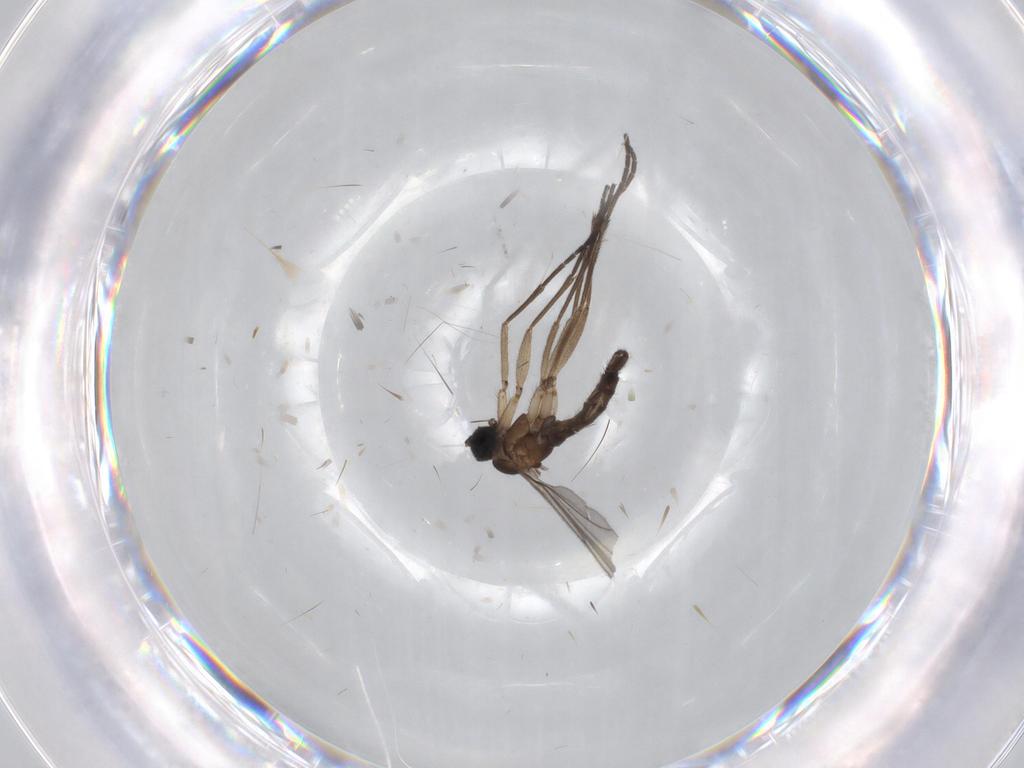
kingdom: Animalia
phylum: Arthropoda
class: Insecta
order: Diptera
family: Sciaridae
